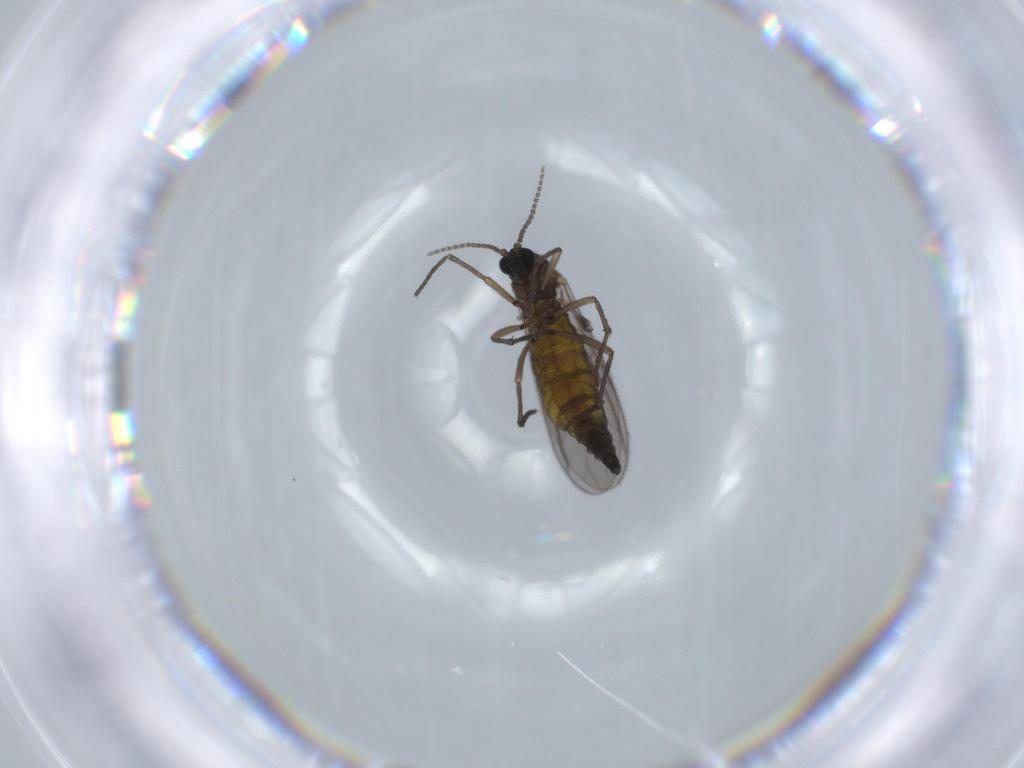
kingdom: Animalia
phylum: Arthropoda
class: Insecta
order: Diptera
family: Sciaridae
